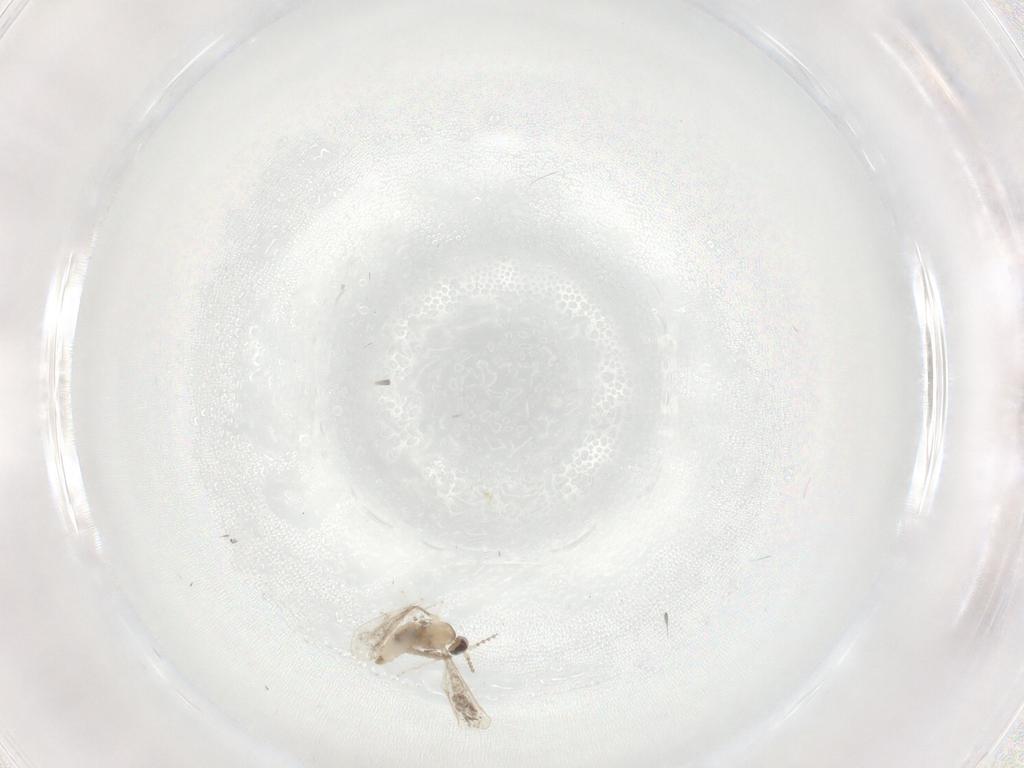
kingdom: Animalia
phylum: Arthropoda
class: Insecta
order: Diptera
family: Cecidomyiidae
